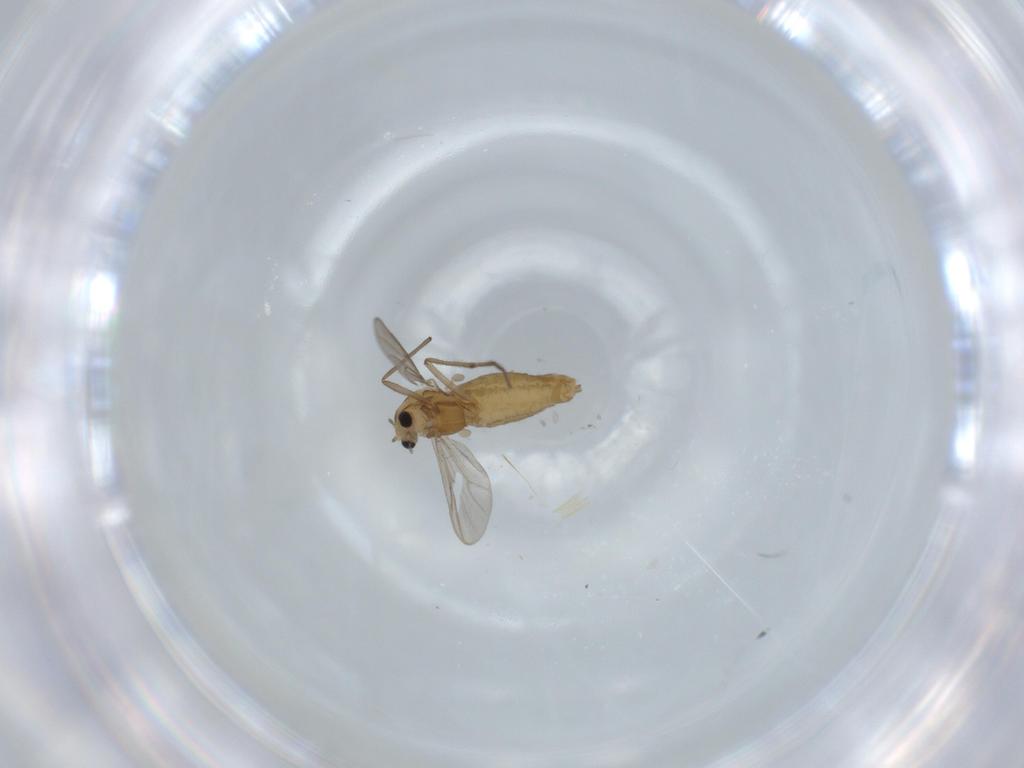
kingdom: Animalia
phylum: Arthropoda
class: Insecta
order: Diptera
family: Chironomidae
